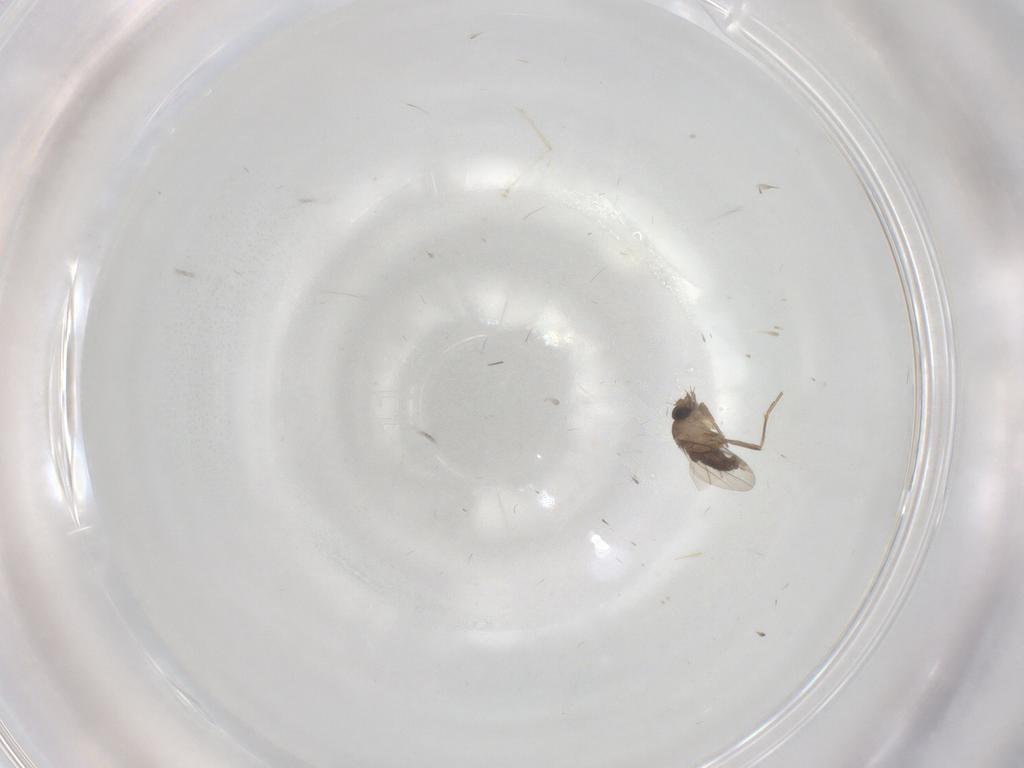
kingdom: Animalia
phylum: Arthropoda
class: Insecta
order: Diptera
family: Phoridae
